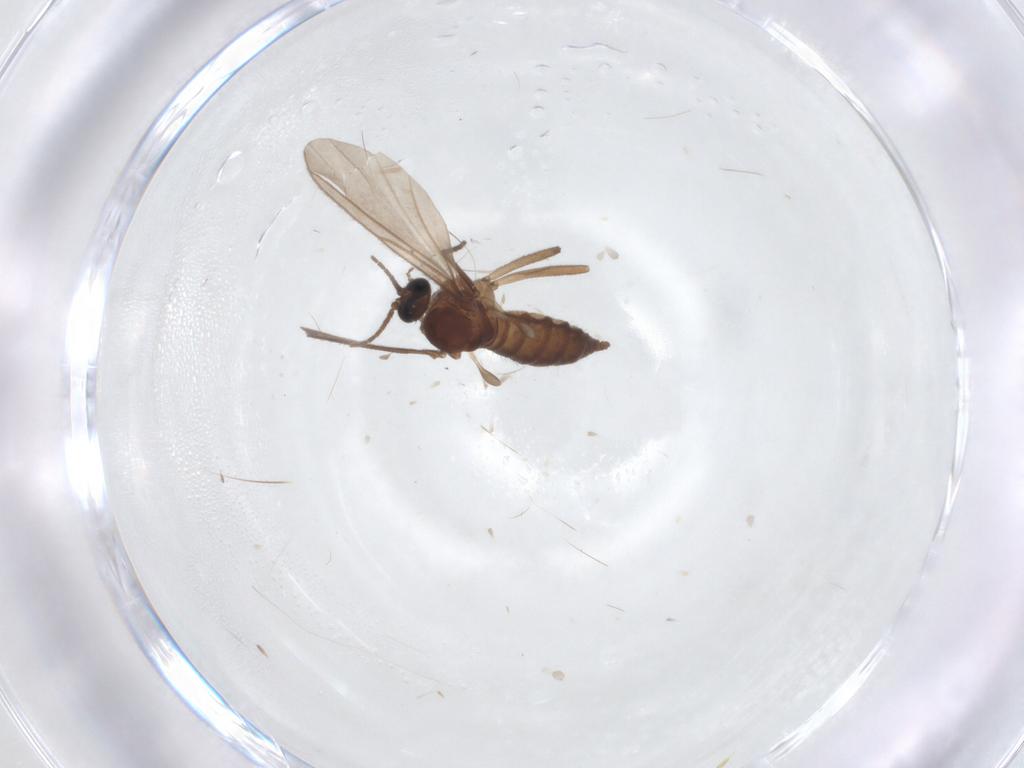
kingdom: Animalia
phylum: Arthropoda
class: Insecta
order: Diptera
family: Sciaridae
